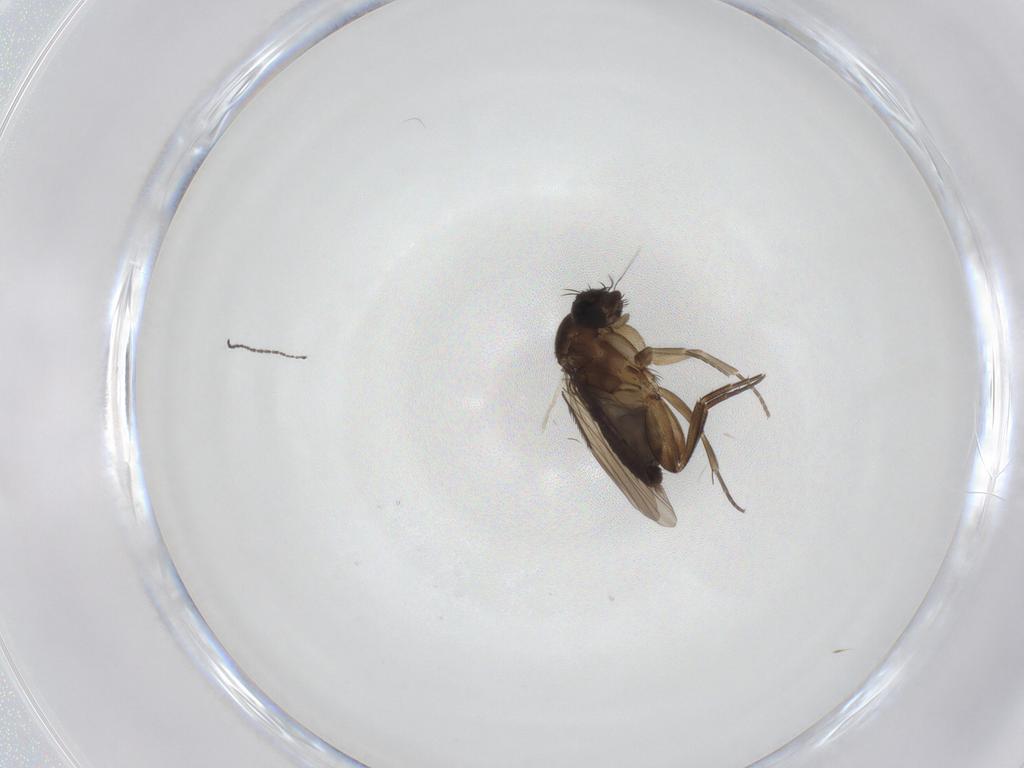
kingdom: Animalia
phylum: Arthropoda
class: Insecta
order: Diptera
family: Phoridae
